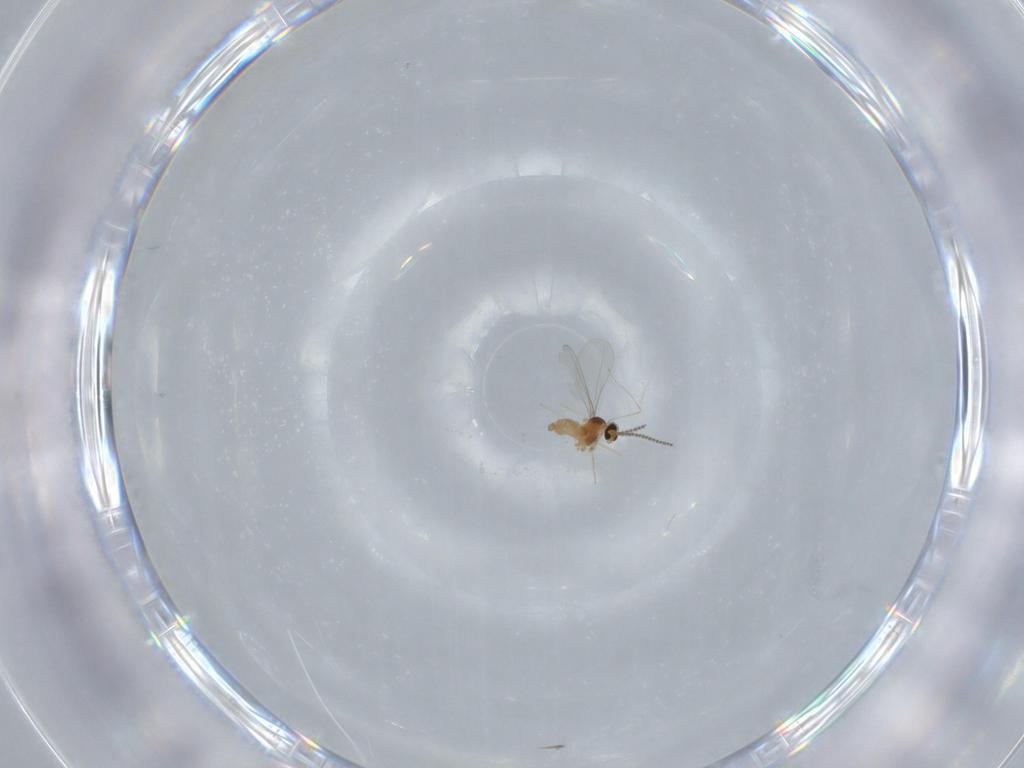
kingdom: Animalia
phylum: Arthropoda
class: Insecta
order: Diptera
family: Cecidomyiidae
